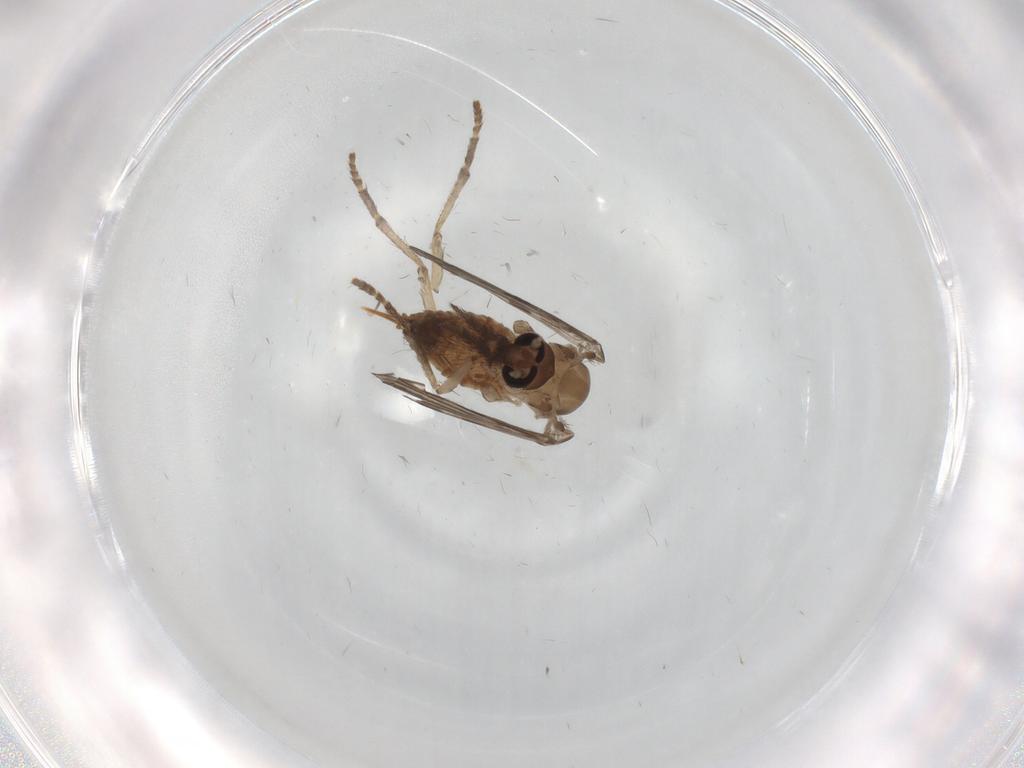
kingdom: Animalia
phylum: Arthropoda
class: Insecta
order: Diptera
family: Psychodidae
